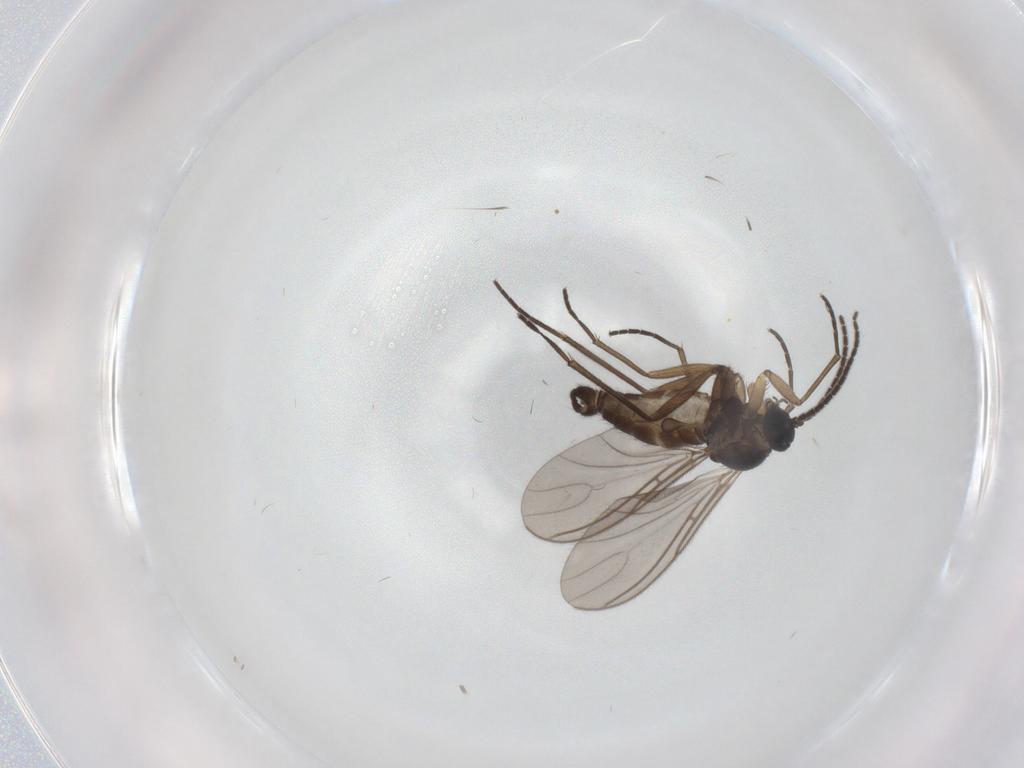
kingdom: Animalia
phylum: Arthropoda
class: Insecta
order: Diptera
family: Sciaridae
